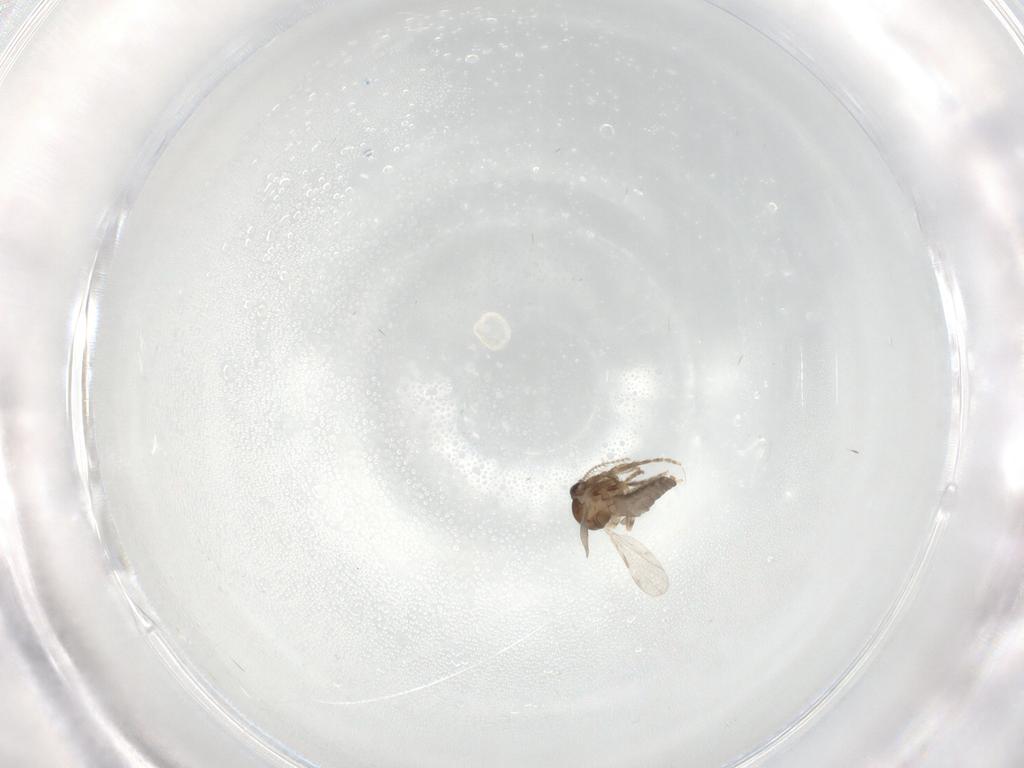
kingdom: Animalia
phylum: Arthropoda
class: Insecta
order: Diptera
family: Ceratopogonidae
